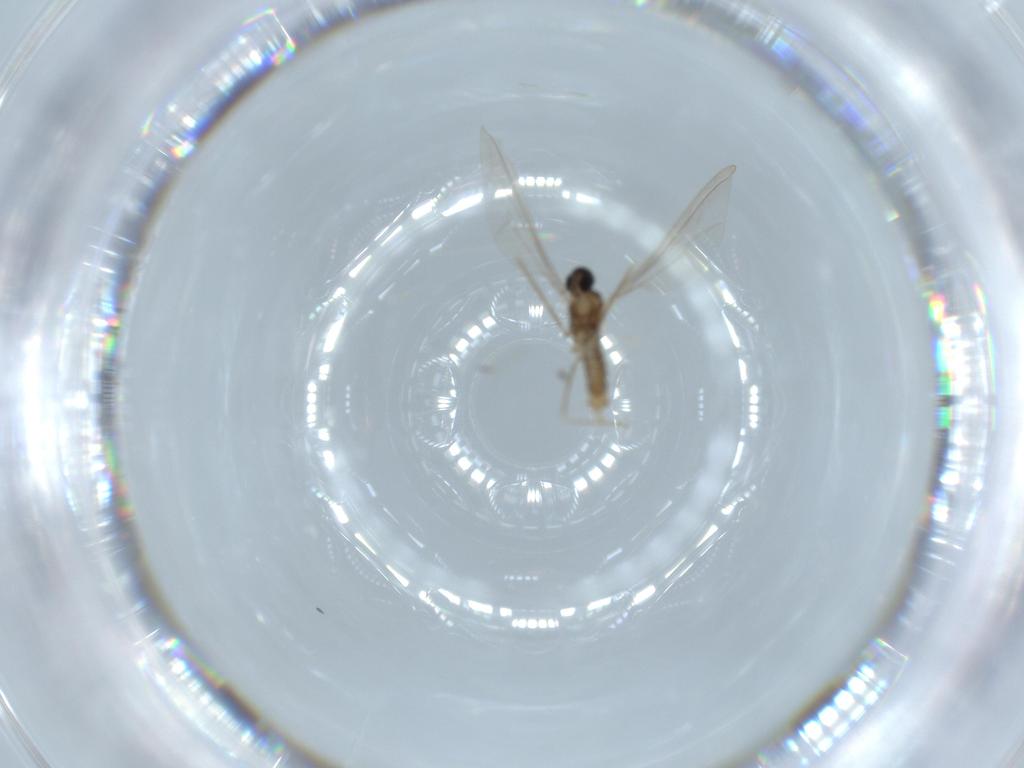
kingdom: Animalia
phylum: Arthropoda
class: Insecta
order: Diptera
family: Cecidomyiidae
